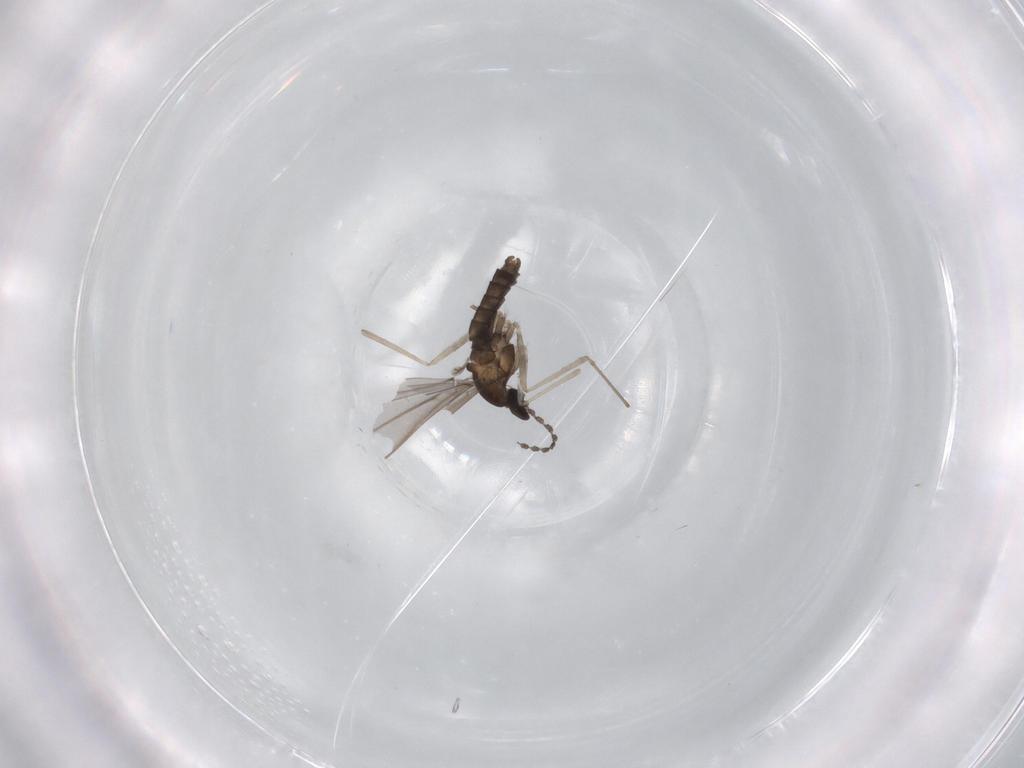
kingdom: Animalia
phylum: Arthropoda
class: Insecta
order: Diptera
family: Cecidomyiidae
